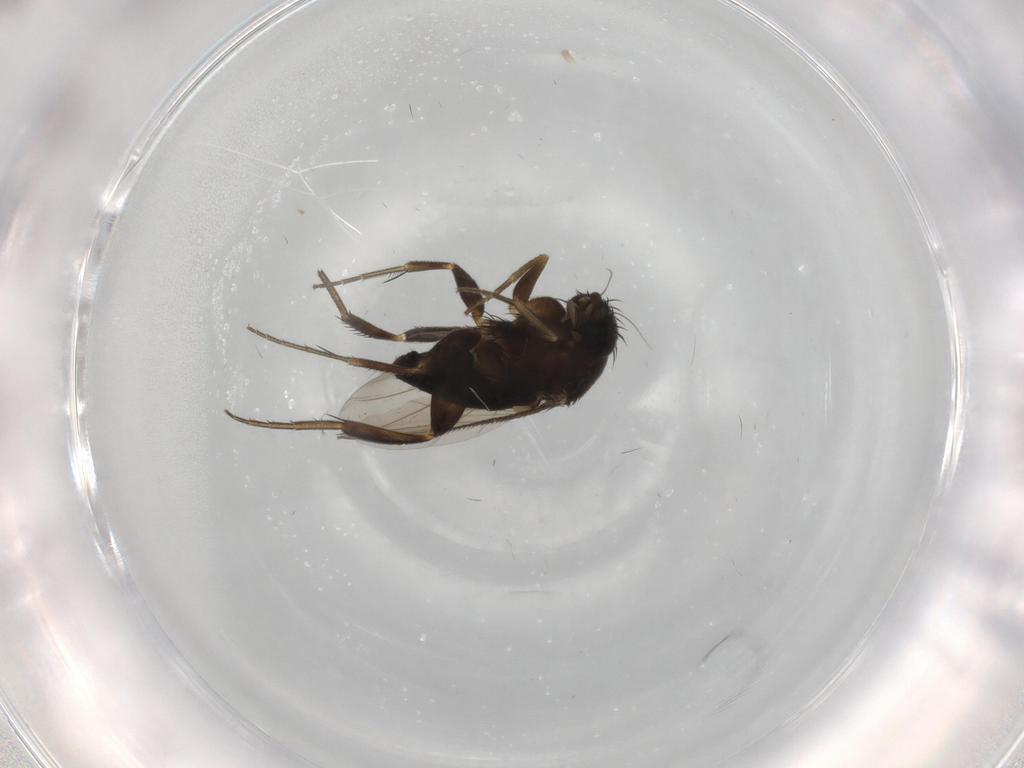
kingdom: Animalia
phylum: Arthropoda
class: Insecta
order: Diptera
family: Phoridae
